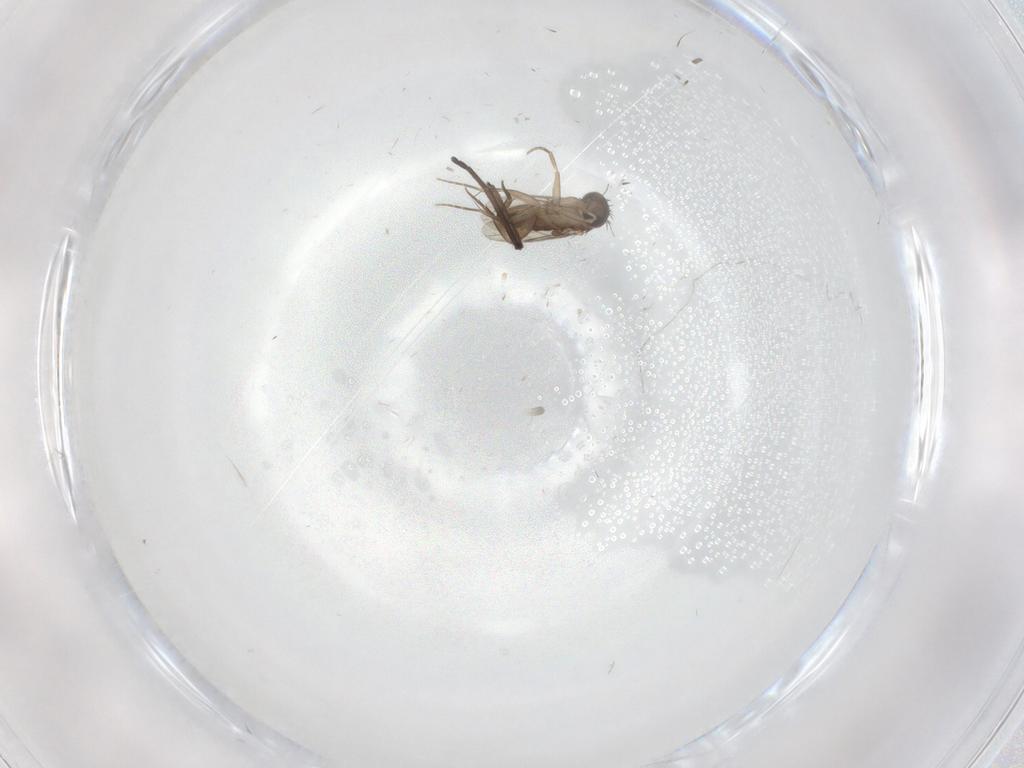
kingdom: Animalia
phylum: Arthropoda
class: Insecta
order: Diptera
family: Limoniidae
